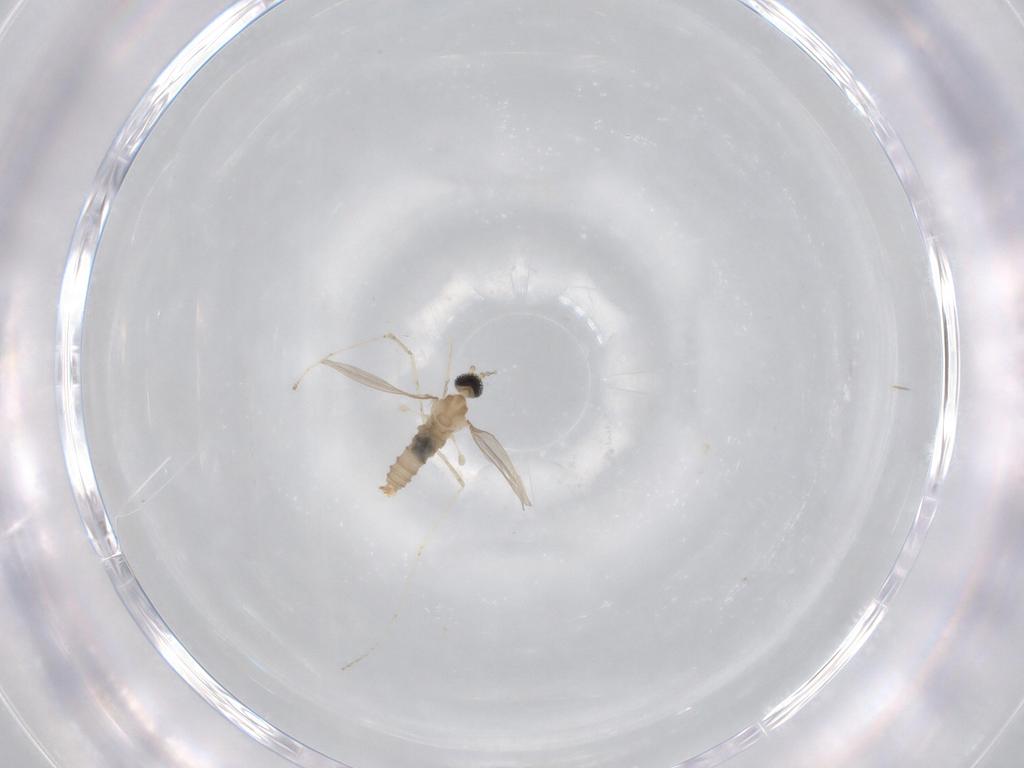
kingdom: Animalia
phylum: Arthropoda
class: Insecta
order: Diptera
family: Cecidomyiidae
